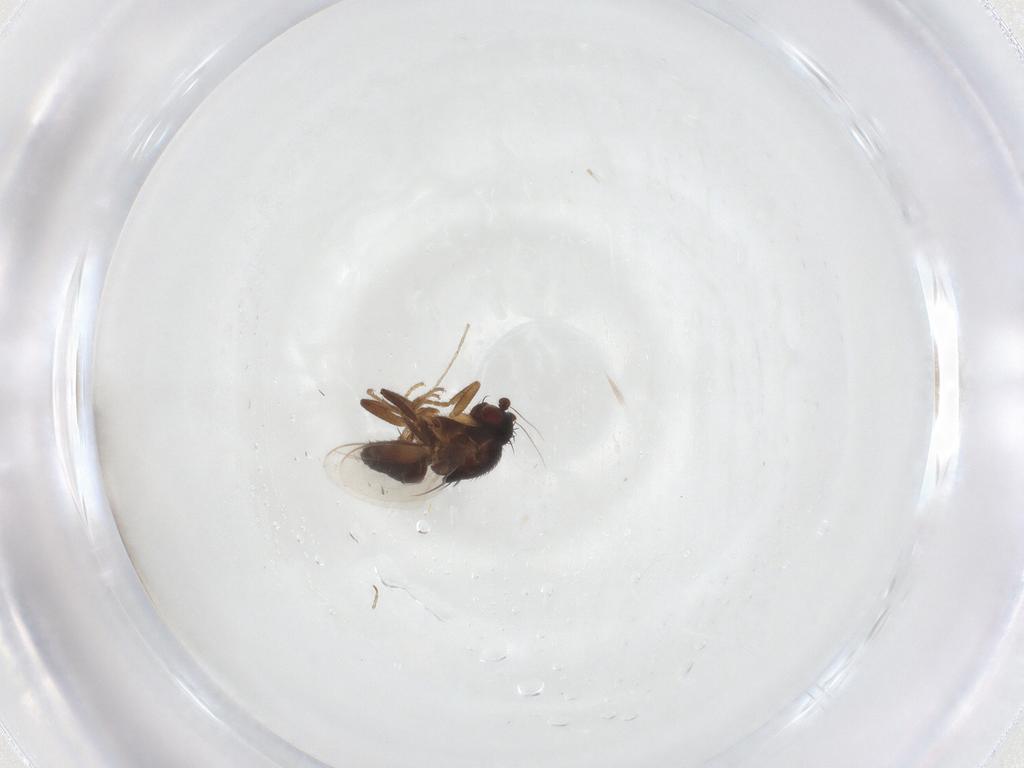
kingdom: Animalia
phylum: Arthropoda
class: Insecta
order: Diptera
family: Sphaeroceridae
